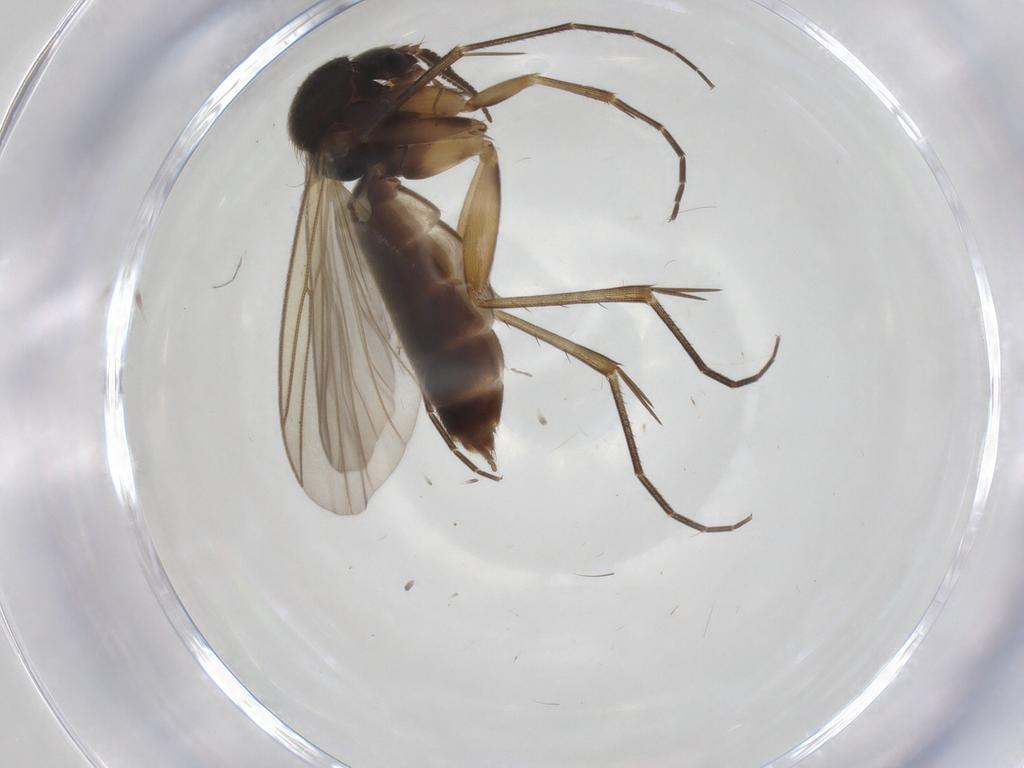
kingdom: Animalia
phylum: Arthropoda
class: Insecta
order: Diptera
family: Mycetophilidae
